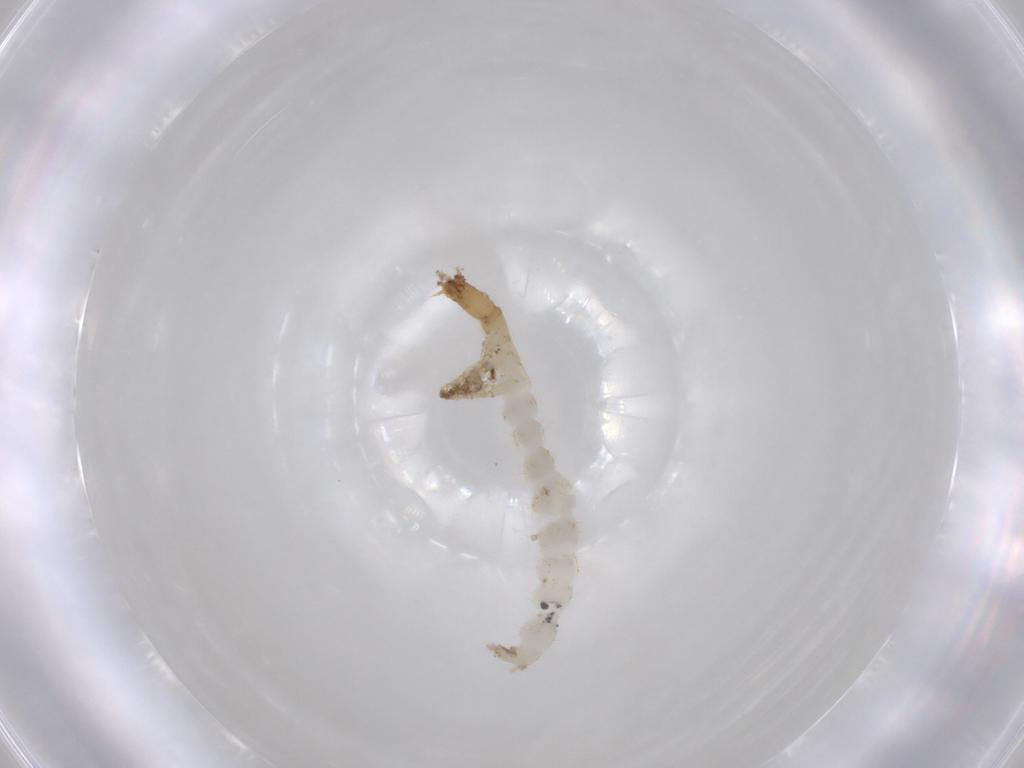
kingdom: Animalia
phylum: Arthropoda
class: Insecta
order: Coleoptera
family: Staphylinidae
